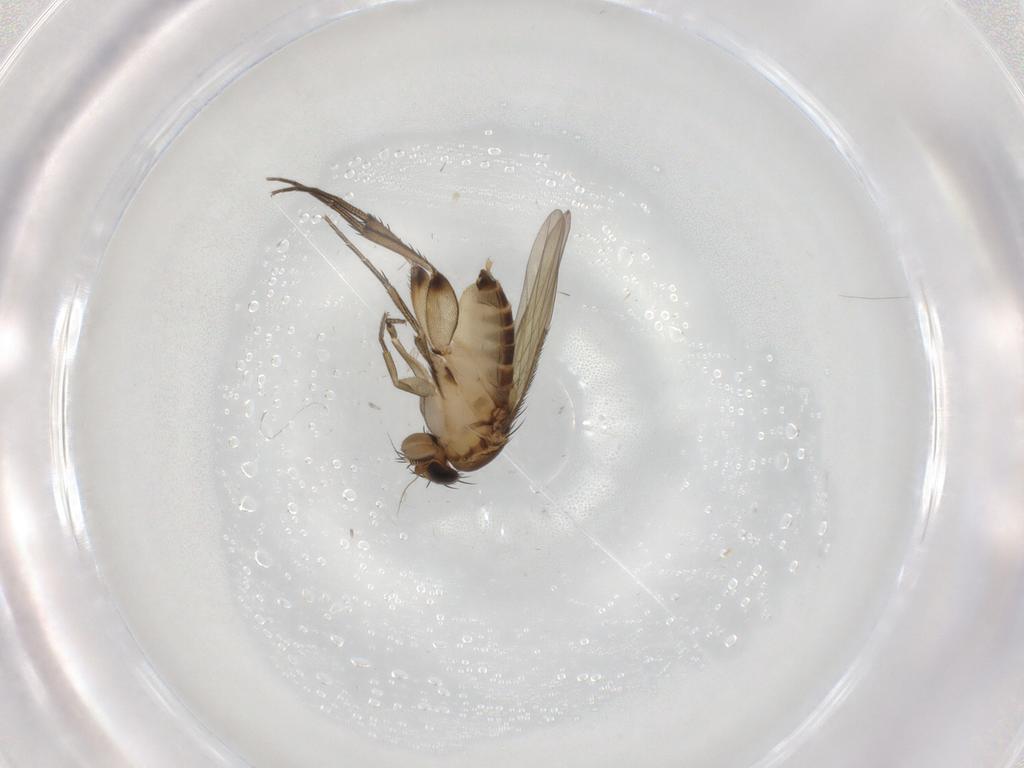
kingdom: Animalia
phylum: Arthropoda
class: Insecta
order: Diptera
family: Phoridae
